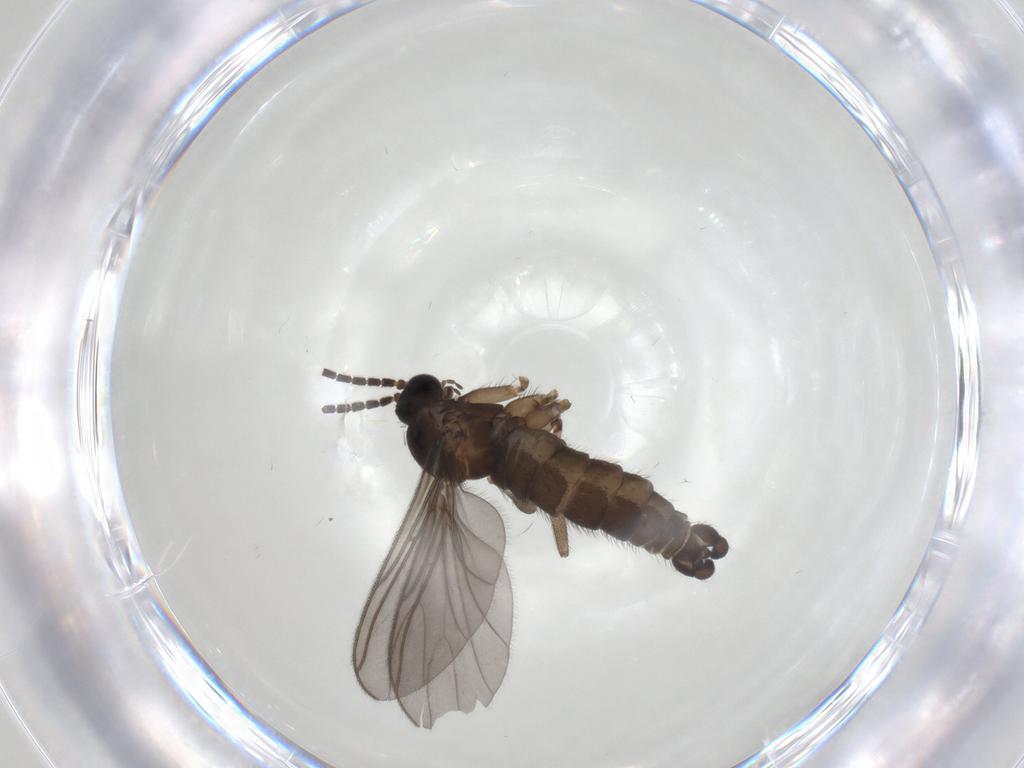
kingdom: Animalia
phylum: Arthropoda
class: Insecta
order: Diptera
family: Sciaridae
